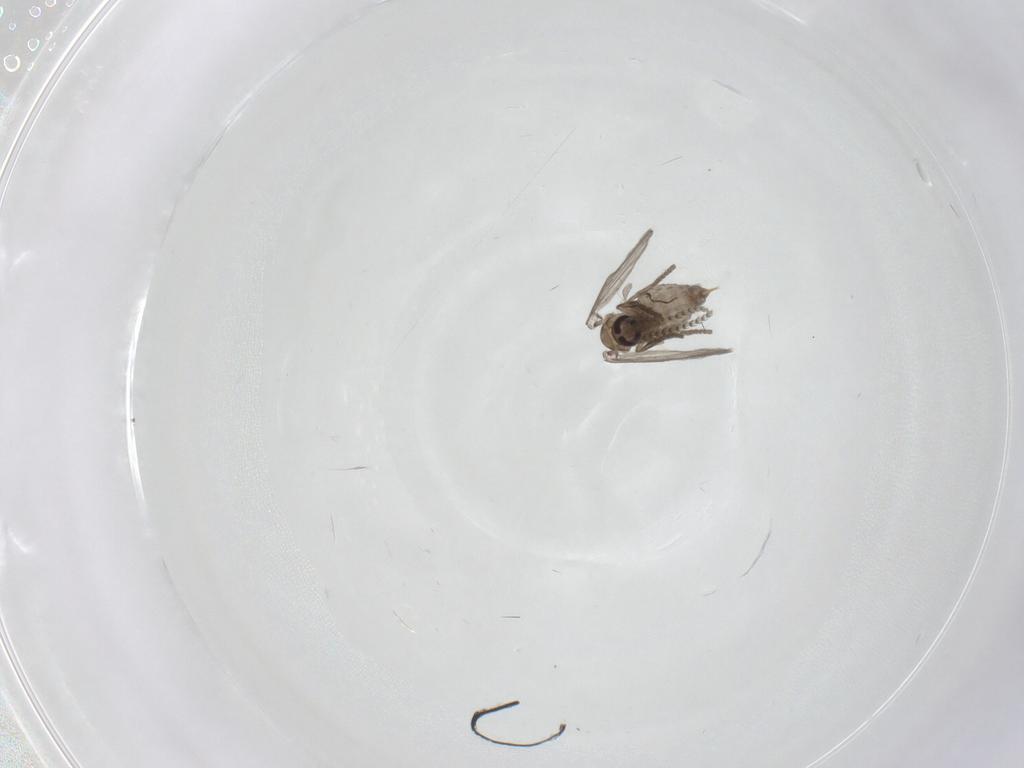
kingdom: Animalia
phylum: Arthropoda
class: Insecta
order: Diptera
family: Psychodidae
